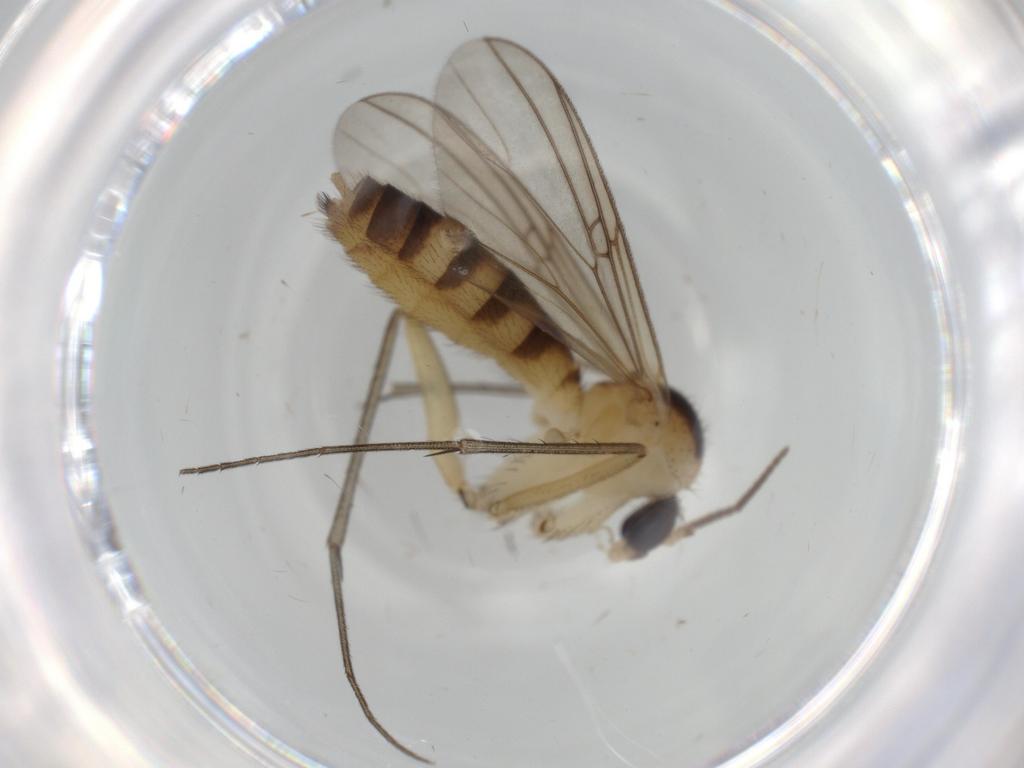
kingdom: Animalia
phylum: Arthropoda
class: Insecta
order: Diptera
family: Mycetophilidae
